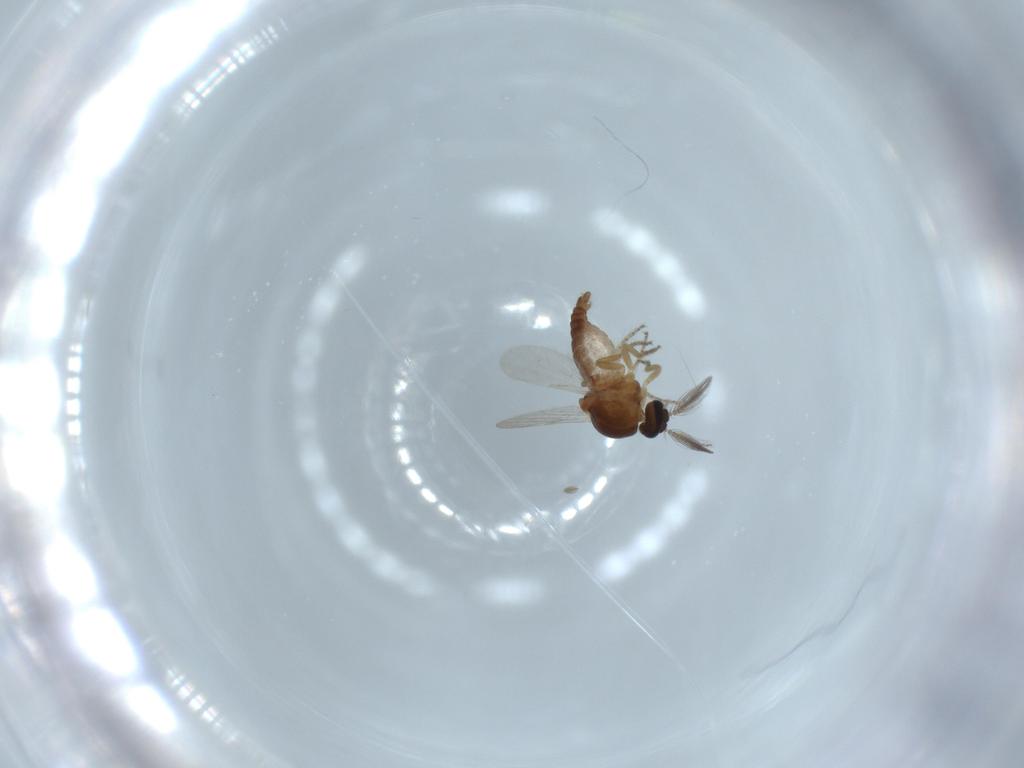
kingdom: Animalia
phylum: Arthropoda
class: Insecta
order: Diptera
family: Ceratopogonidae
